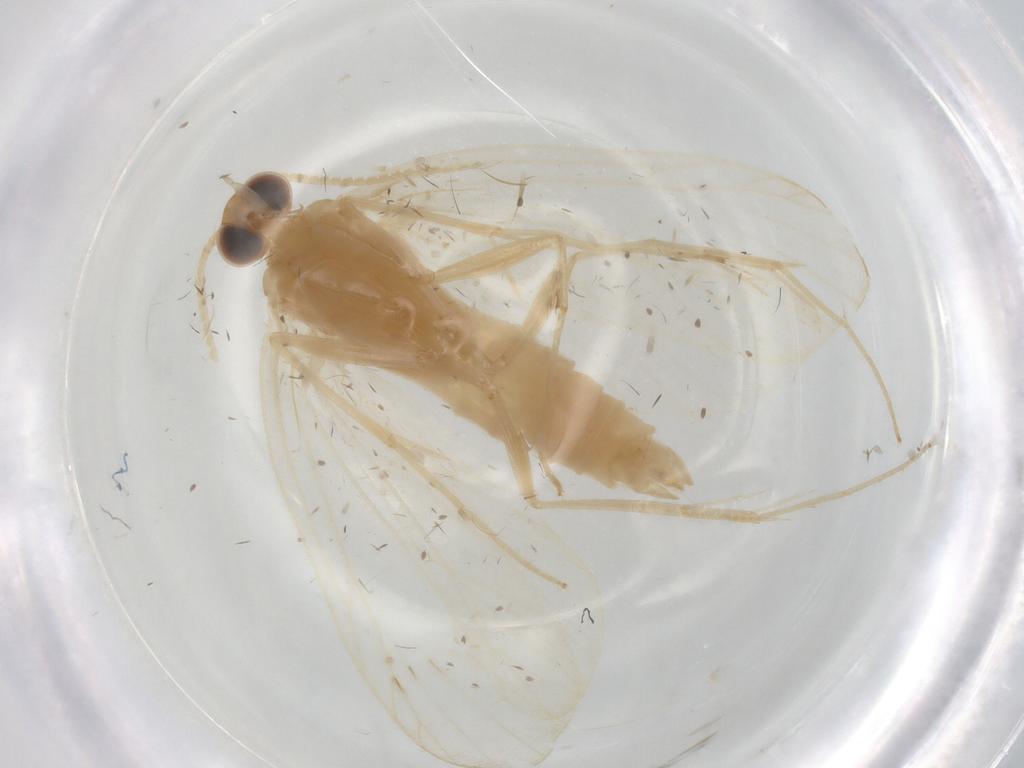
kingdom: Animalia
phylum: Arthropoda
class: Insecta
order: Lepidoptera
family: Crambidae
